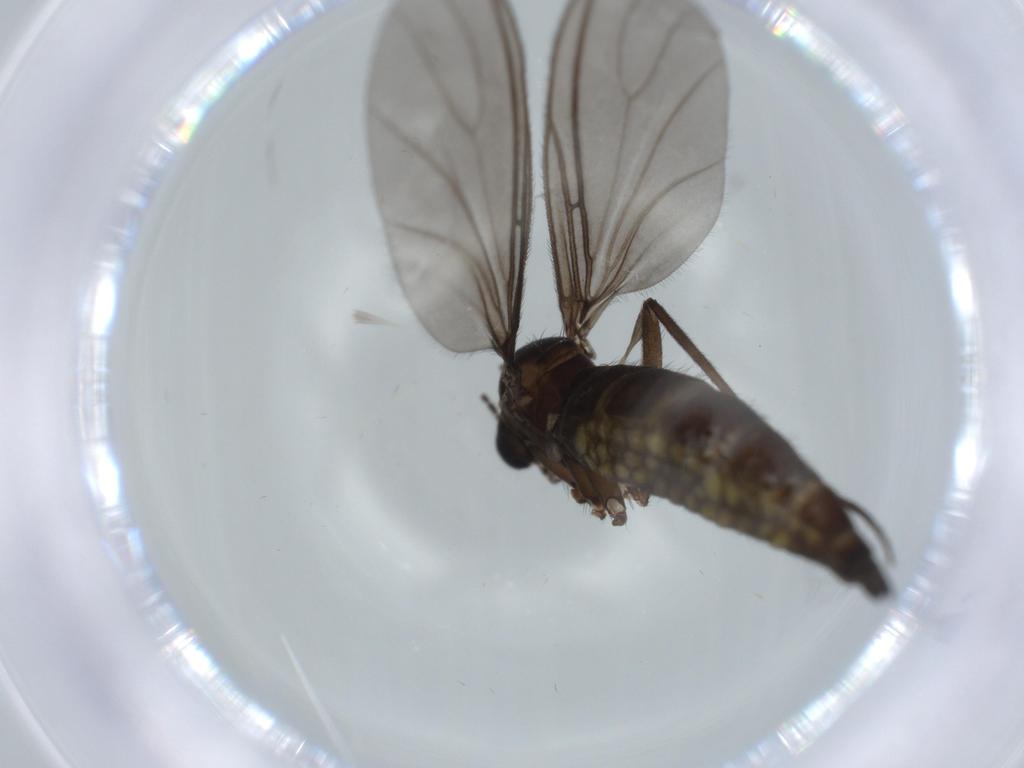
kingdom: Animalia
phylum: Arthropoda
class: Insecta
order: Diptera
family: Sciaridae
